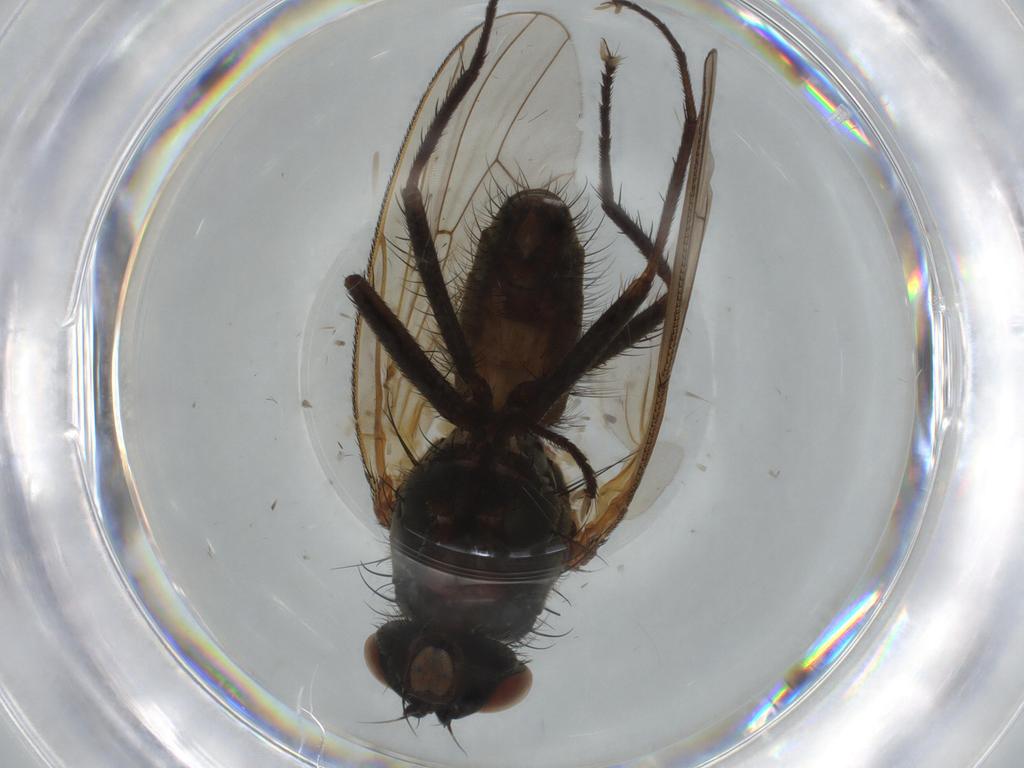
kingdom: Animalia
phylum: Arthropoda
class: Insecta
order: Diptera
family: Anthomyiidae
